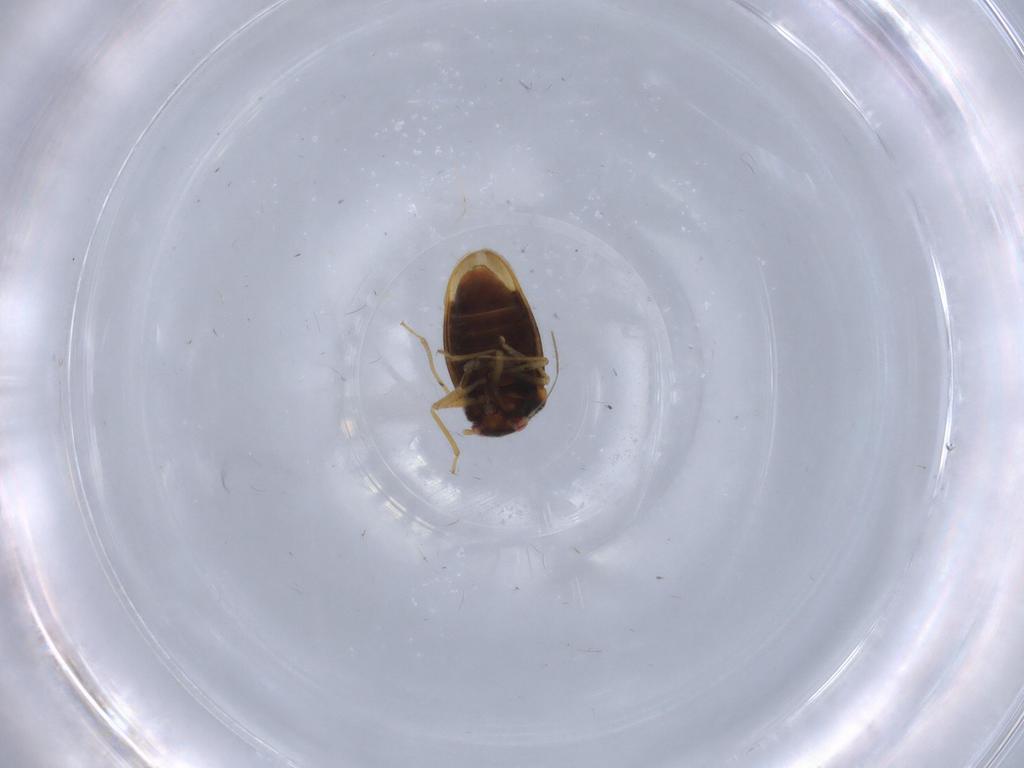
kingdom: Animalia
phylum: Arthropoda
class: Insecta
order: Hemiptera
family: Schizopteridae
